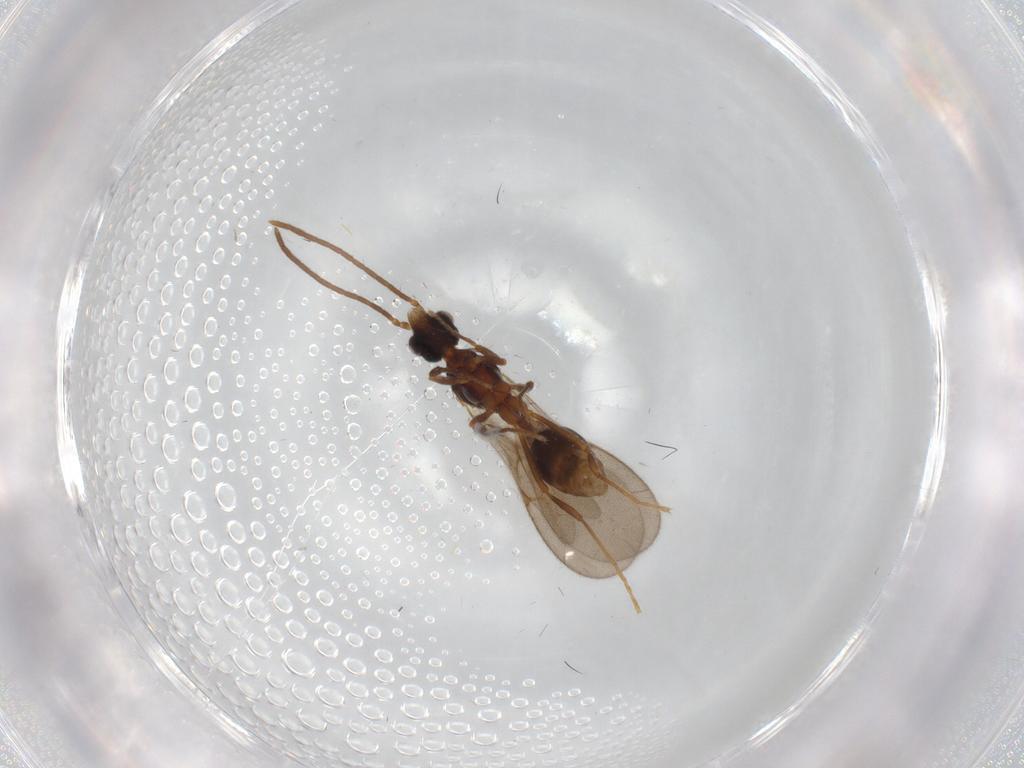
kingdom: Animalia
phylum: Arthropoda
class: Insecta
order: Hymenoptera
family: Formicidae
